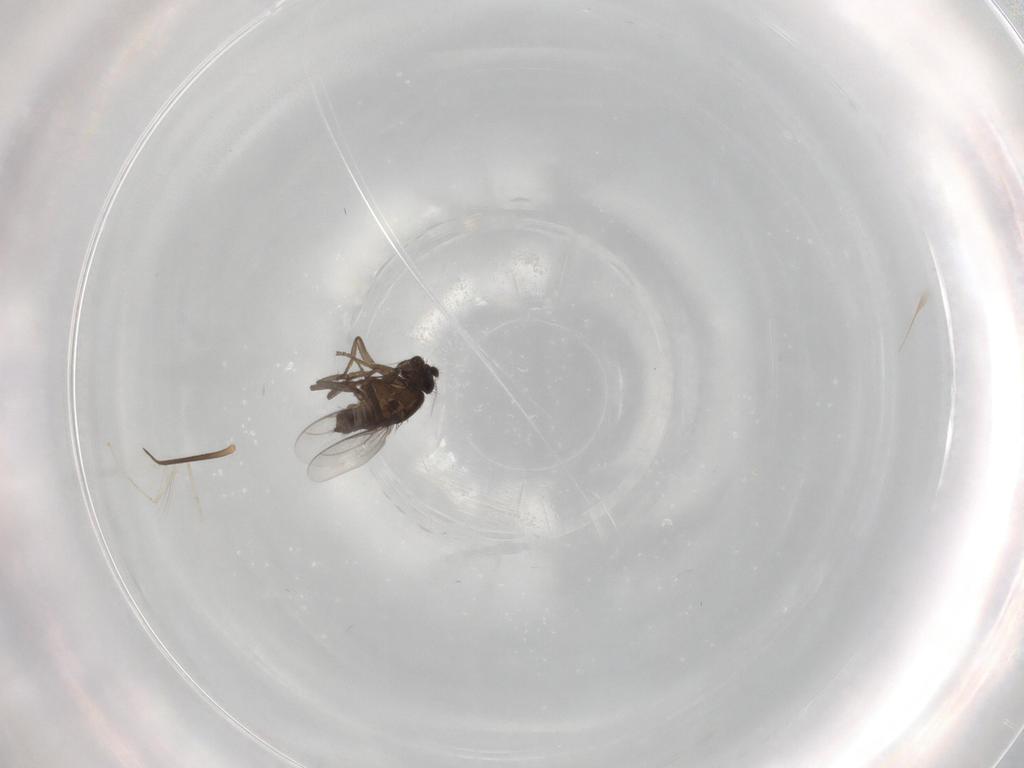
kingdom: Animalia
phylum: Arthropoda
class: Insecta
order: Diptera
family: Chironomidae
